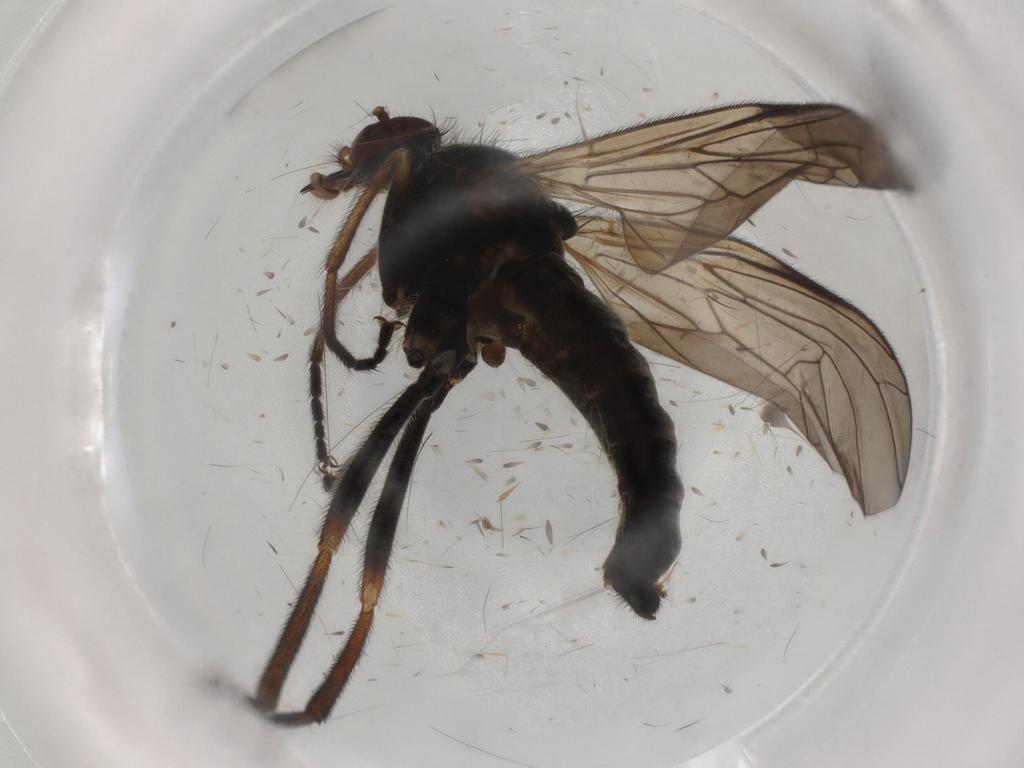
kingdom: Animalia
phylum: Arthropoda
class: Insecta
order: Diptera
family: Empididae
